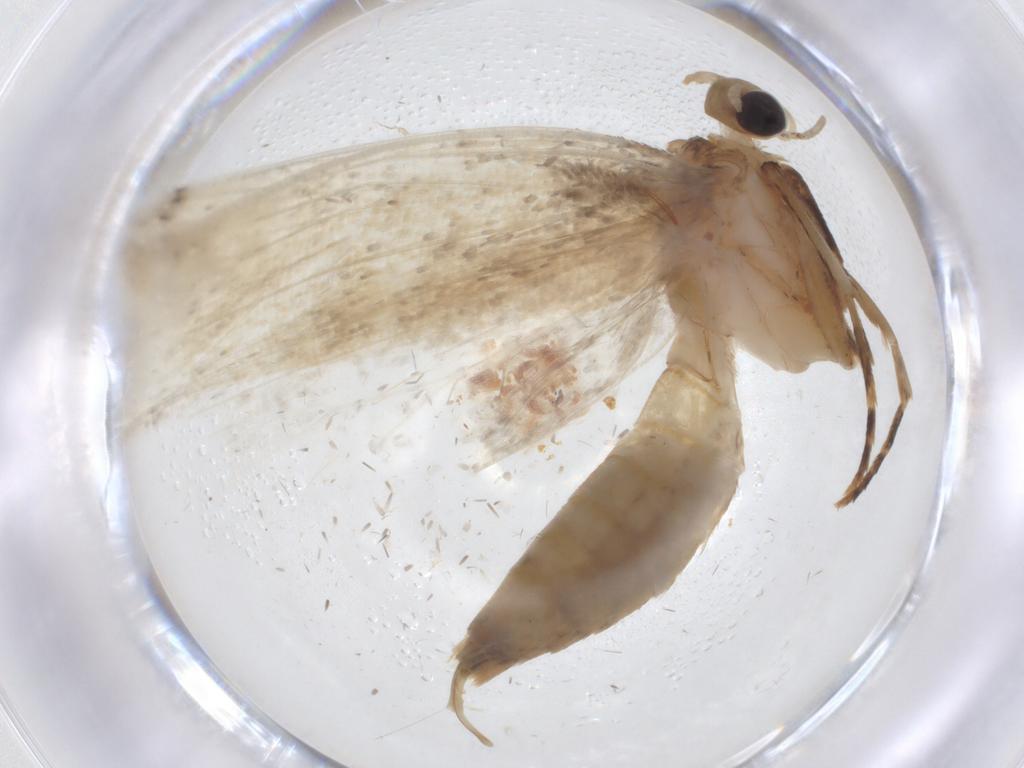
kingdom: Animalia
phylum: Arthropoda
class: Insecta
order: Lepidoptera
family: Tineidae
